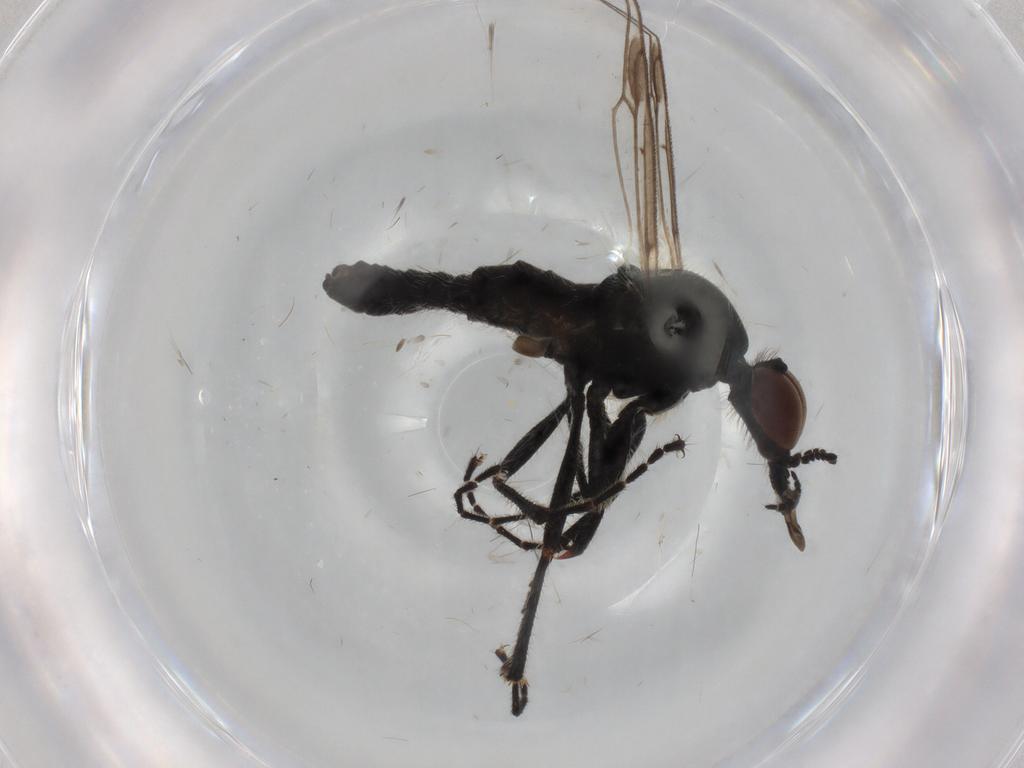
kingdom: Animalia
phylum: Arthropoda
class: Insecta
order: Diptera
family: Bibionidae
